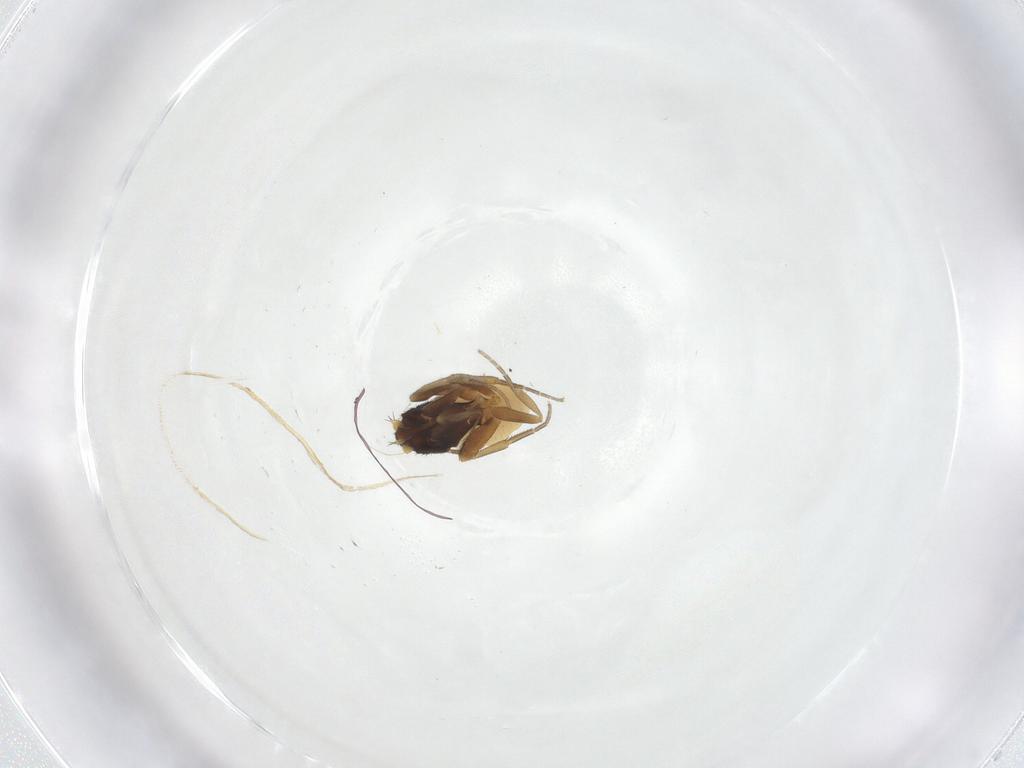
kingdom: Animalia
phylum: Arthropoda
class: Insecta
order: Diptera
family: Phoridae
